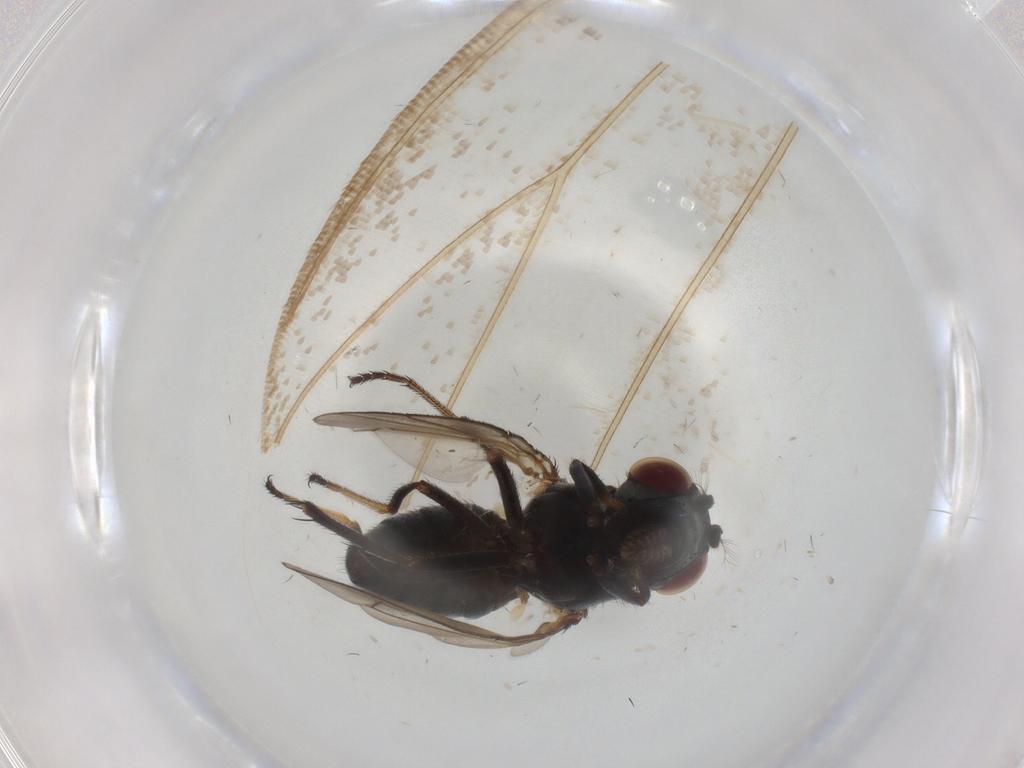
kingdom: Animalia
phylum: Arthropoda
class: Insecta
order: Diptera
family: Ephydridae
